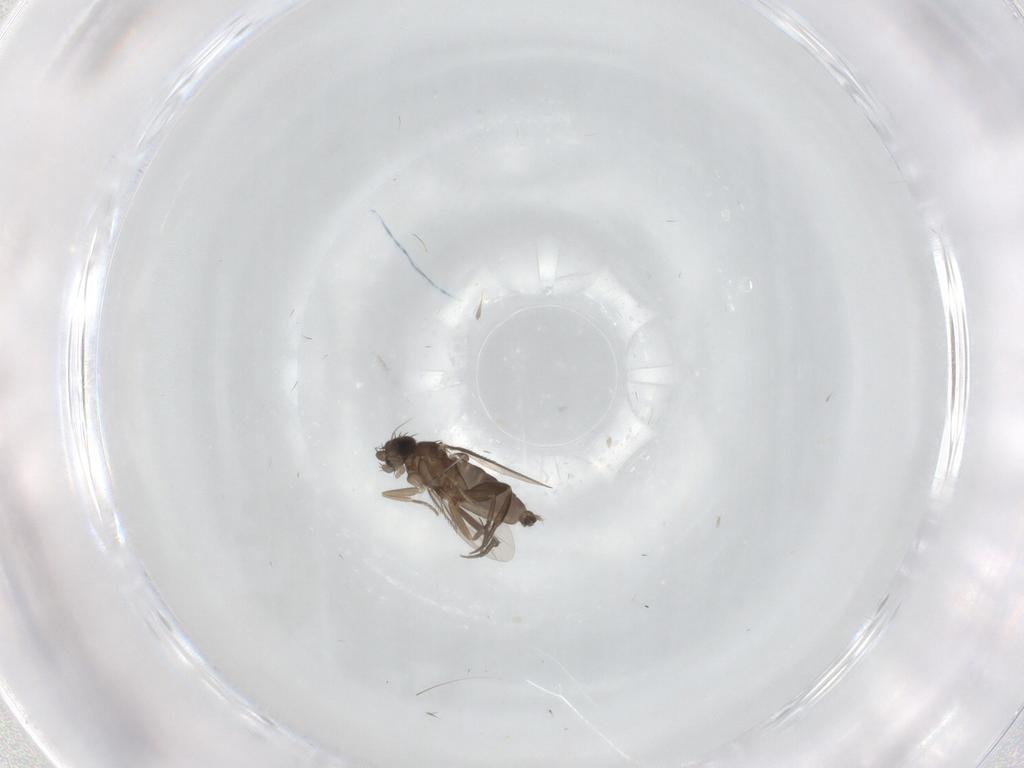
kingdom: Animalia
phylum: Arthropoda
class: Insecta
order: Diptera
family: Phoridae
